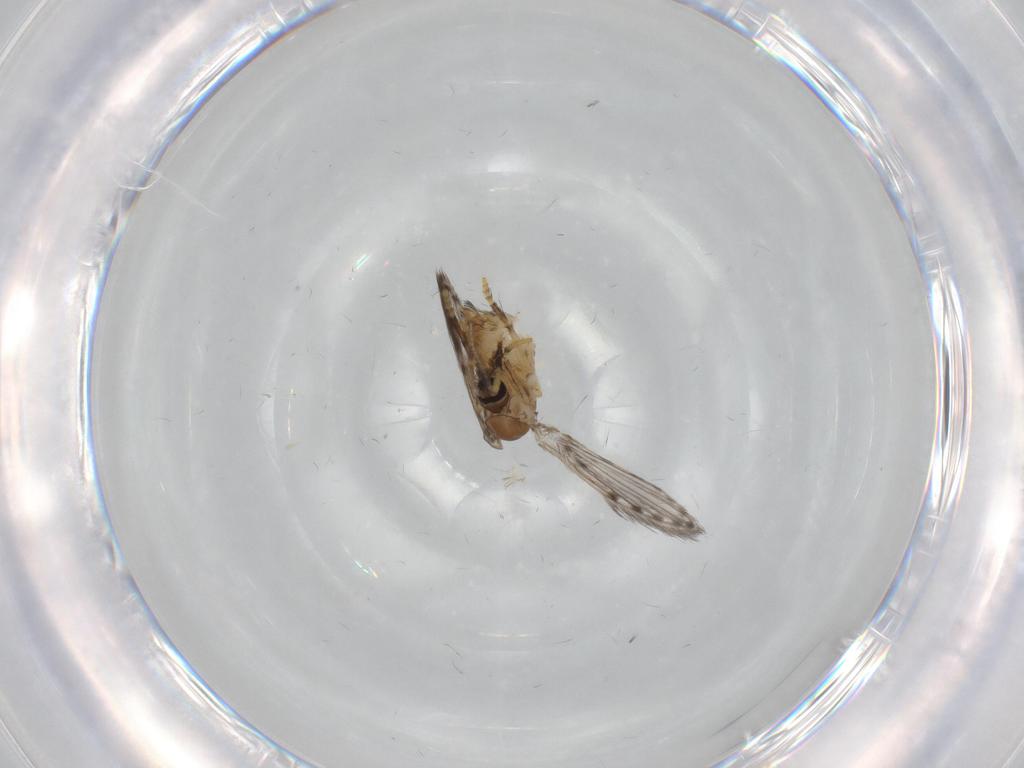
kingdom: Animalia
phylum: Arthropoda
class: Insecta
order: Diptera
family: Psychodidae
